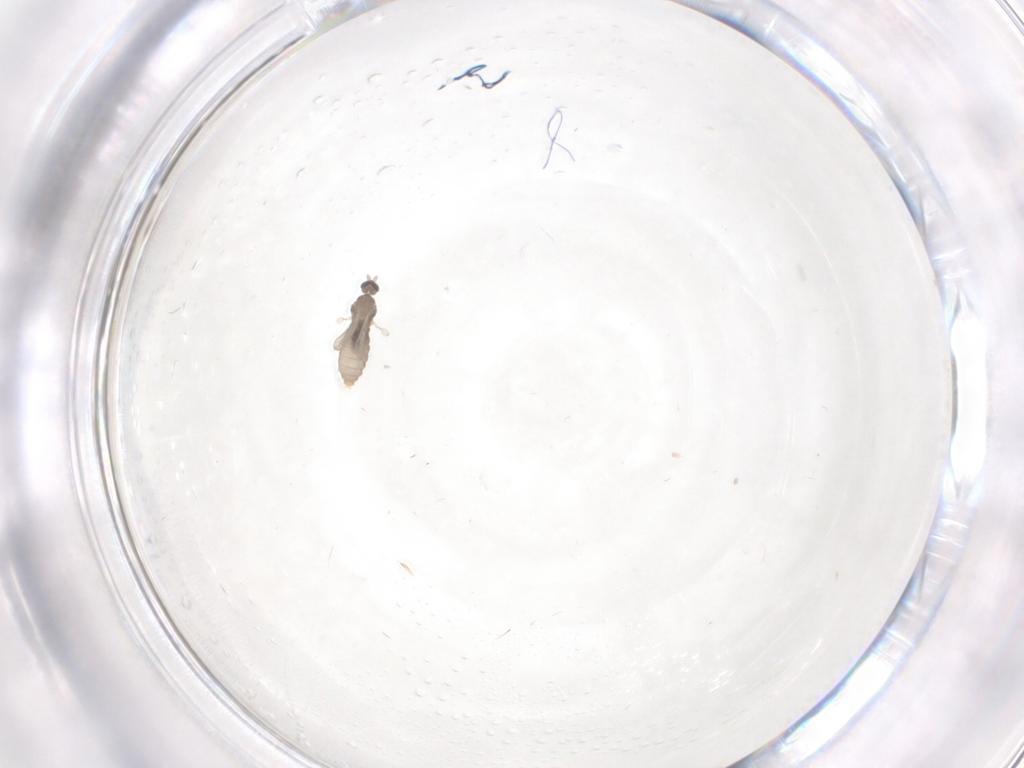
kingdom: Animalia
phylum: Arthropoda
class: Insecta
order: Diptera
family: Cecidomyiidae
